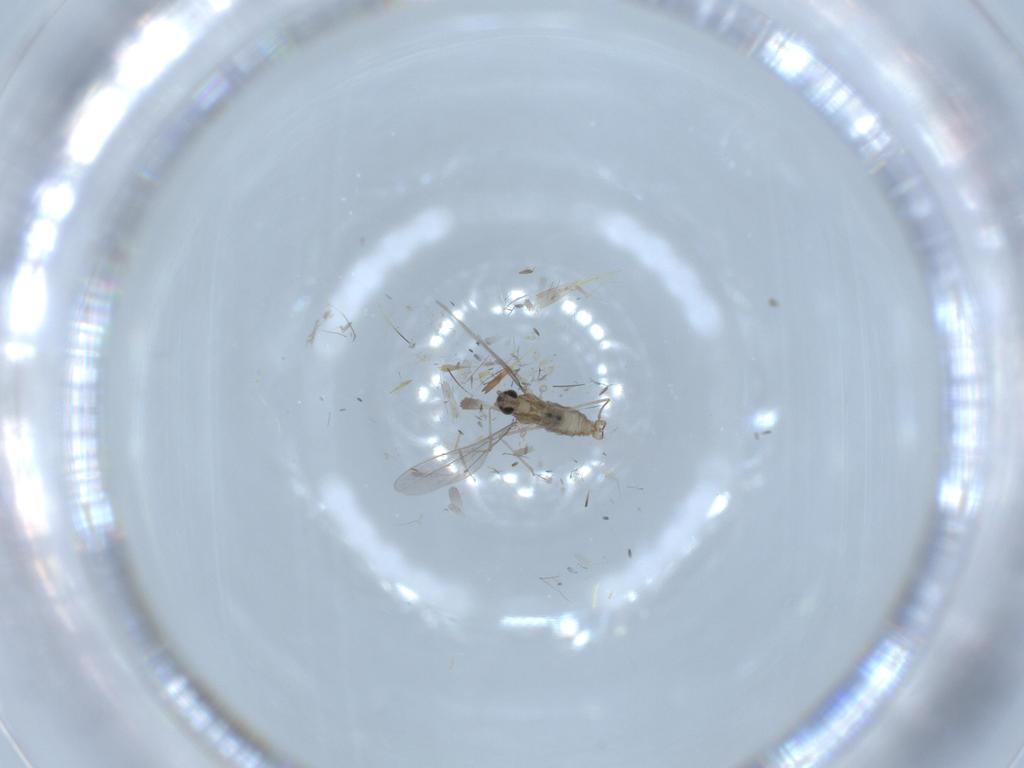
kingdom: Animalia
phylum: Arthropoda
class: Insecta
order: Diptera
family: Cecidomyiidae
